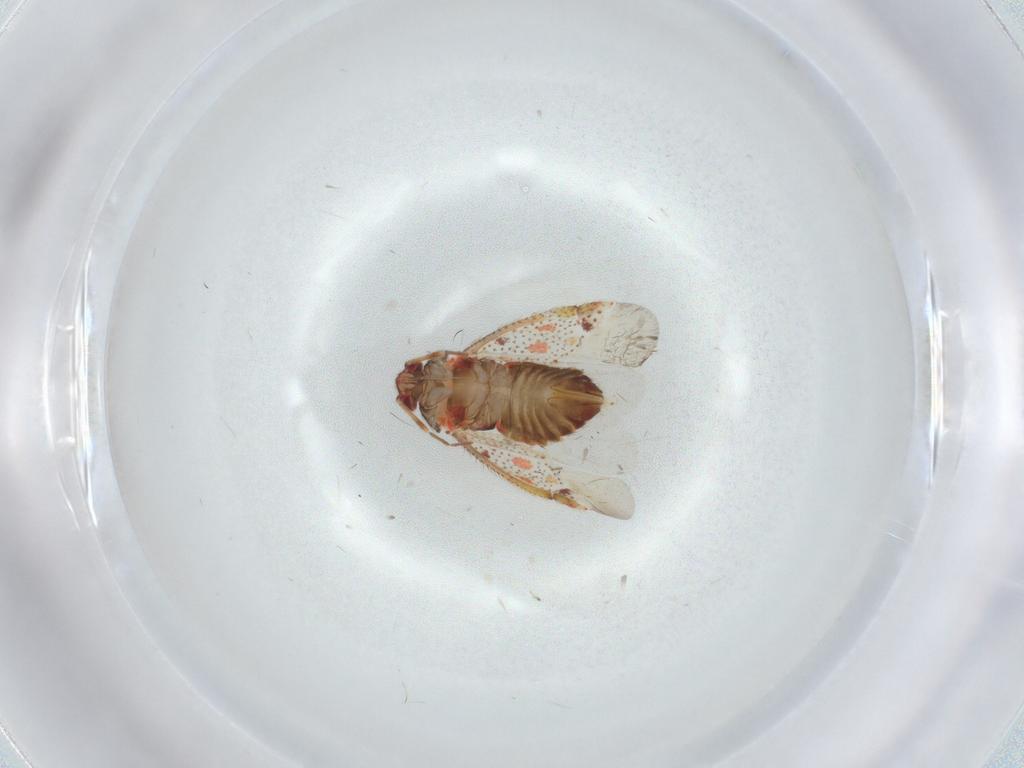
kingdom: Animalia
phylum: Arthropoda
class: Insecta
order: Hemiptera
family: Miridae
